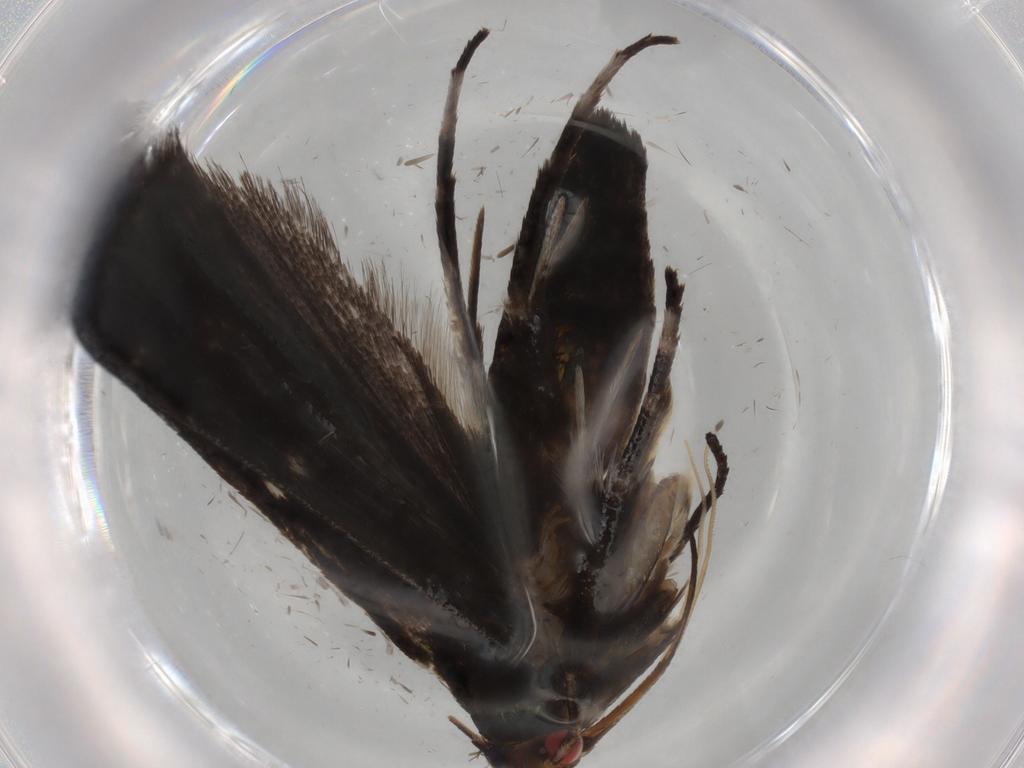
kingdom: Animalia
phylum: Arthropoda
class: Insecta
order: Lepidoptera
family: Gelechiidae
